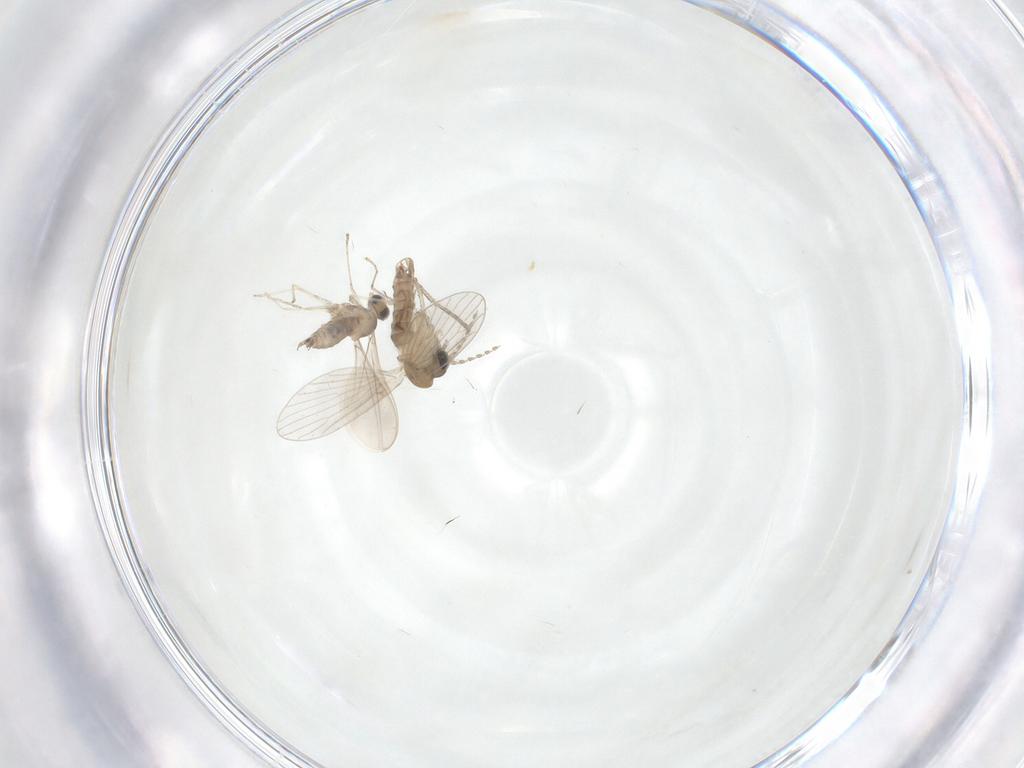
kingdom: Animalia
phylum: Arthropoda
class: Insecta
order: Diptera
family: Cecidomyiidae
